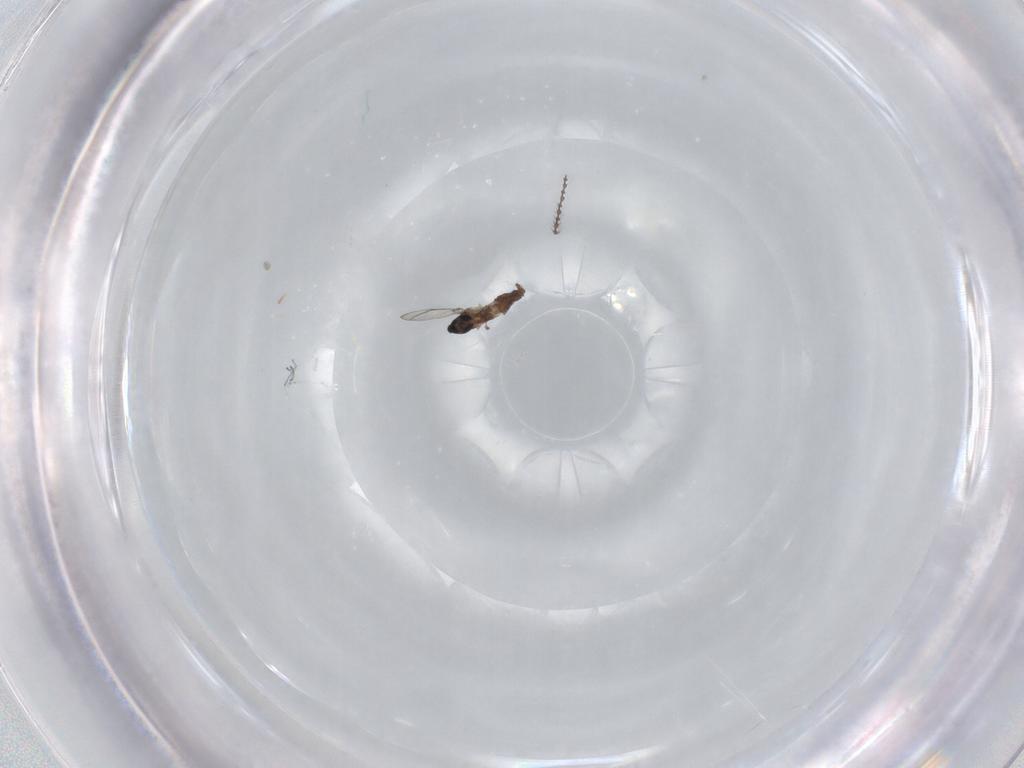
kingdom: Animalia
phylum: Arthropoda
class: Insecta
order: Diptera
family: Cecidomyiidae
